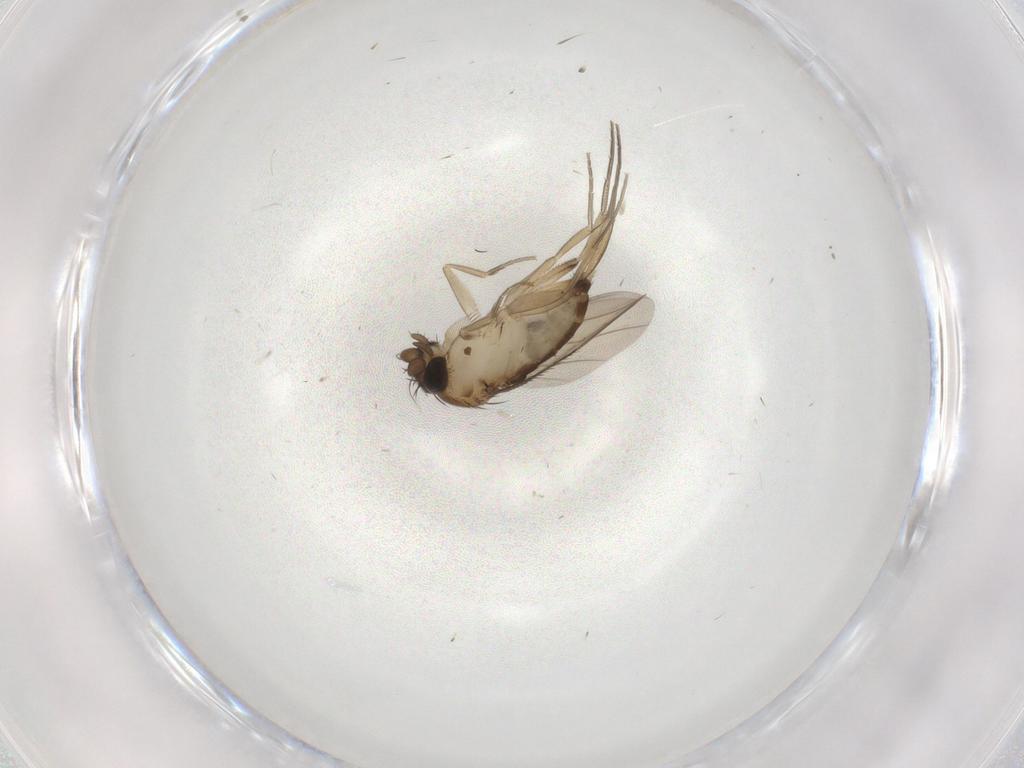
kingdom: Animalia
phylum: Arthropoda
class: Insecta
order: Diptera
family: Phoridae
